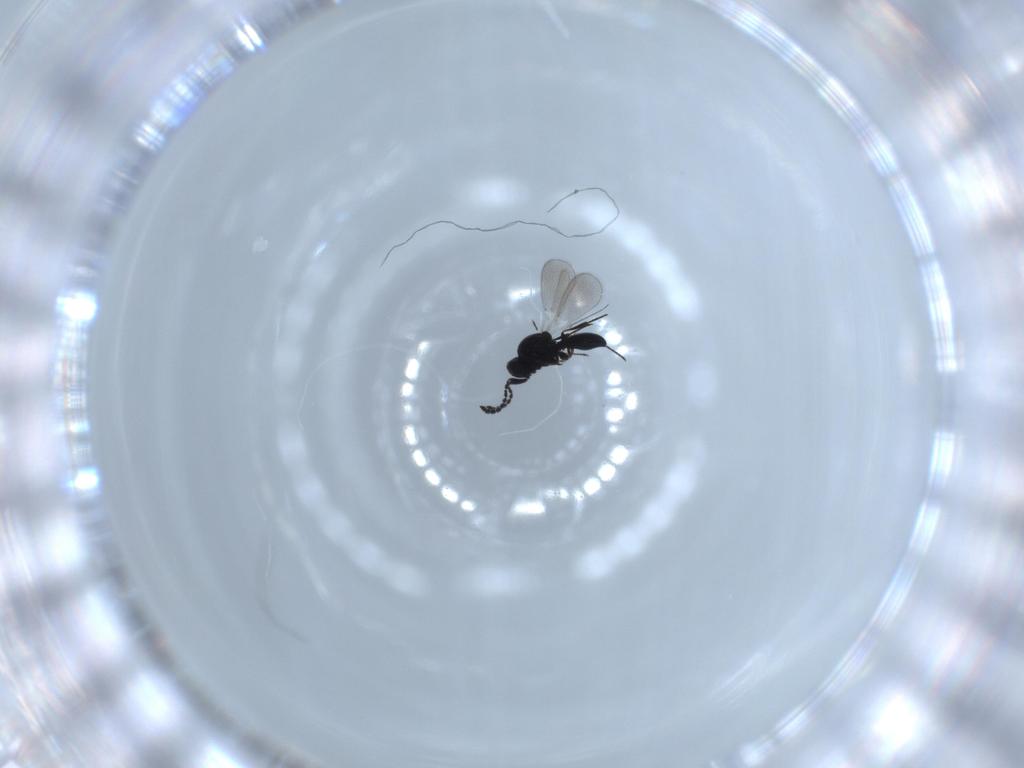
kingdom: Animalia
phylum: Arthropoda
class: Insecta
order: Hymenoptera
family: Platygastridae
